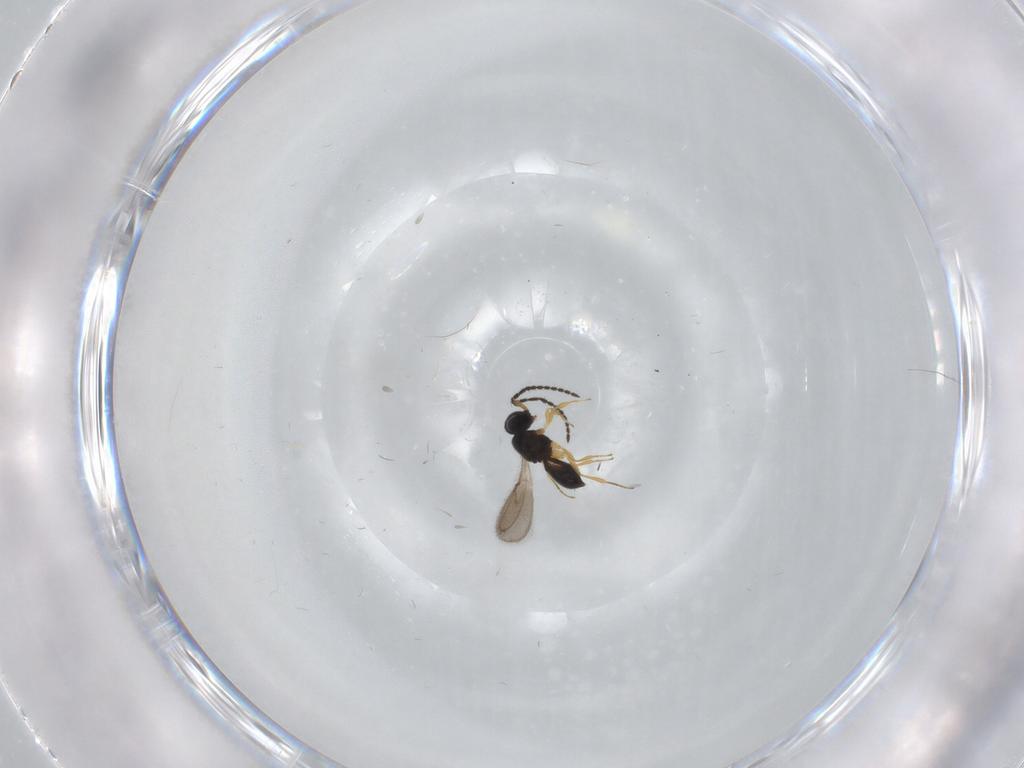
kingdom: Animalia
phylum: Arthropoda
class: Insecta
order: Hymenoptera
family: Scelionidae
